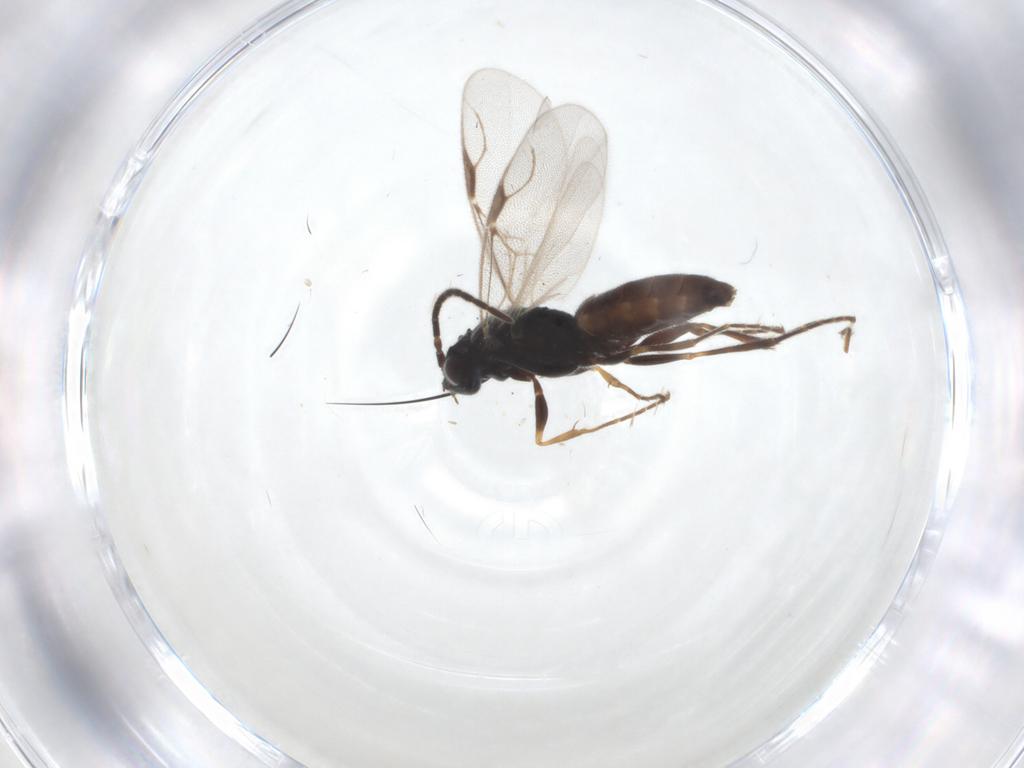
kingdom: Animalia
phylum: Arthropoda
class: Insecta
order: Hymenoptera
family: Dryinidae
